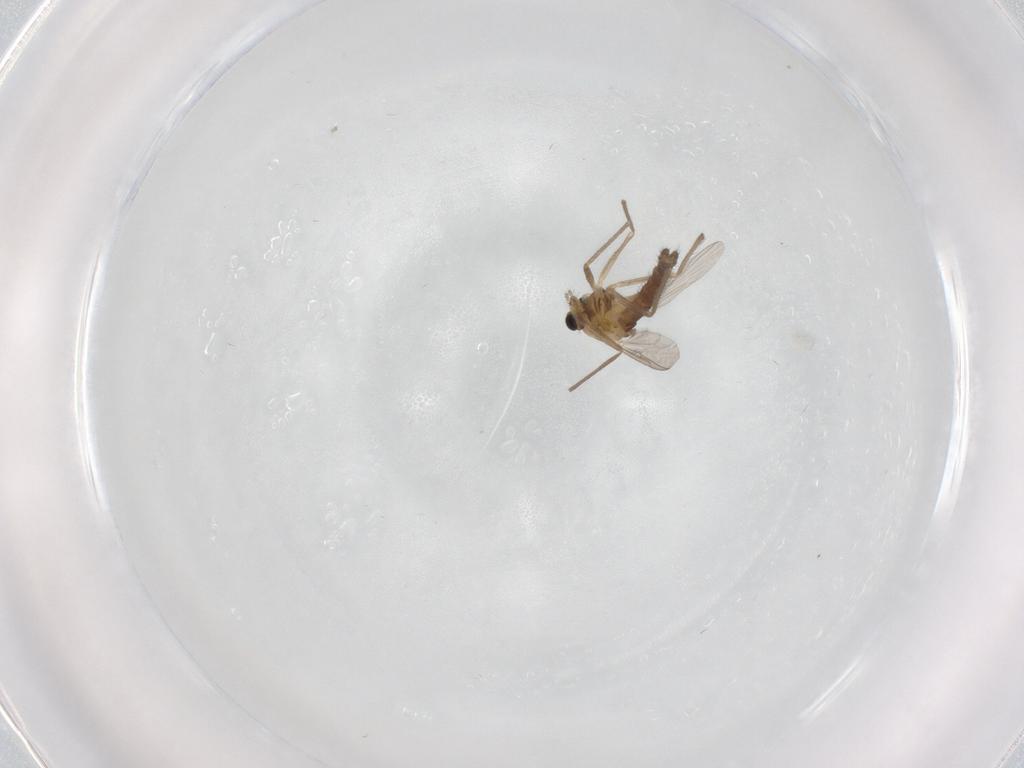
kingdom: Animalia
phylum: Arthropoda
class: Insecta
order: Diptera
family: Chironomidae
